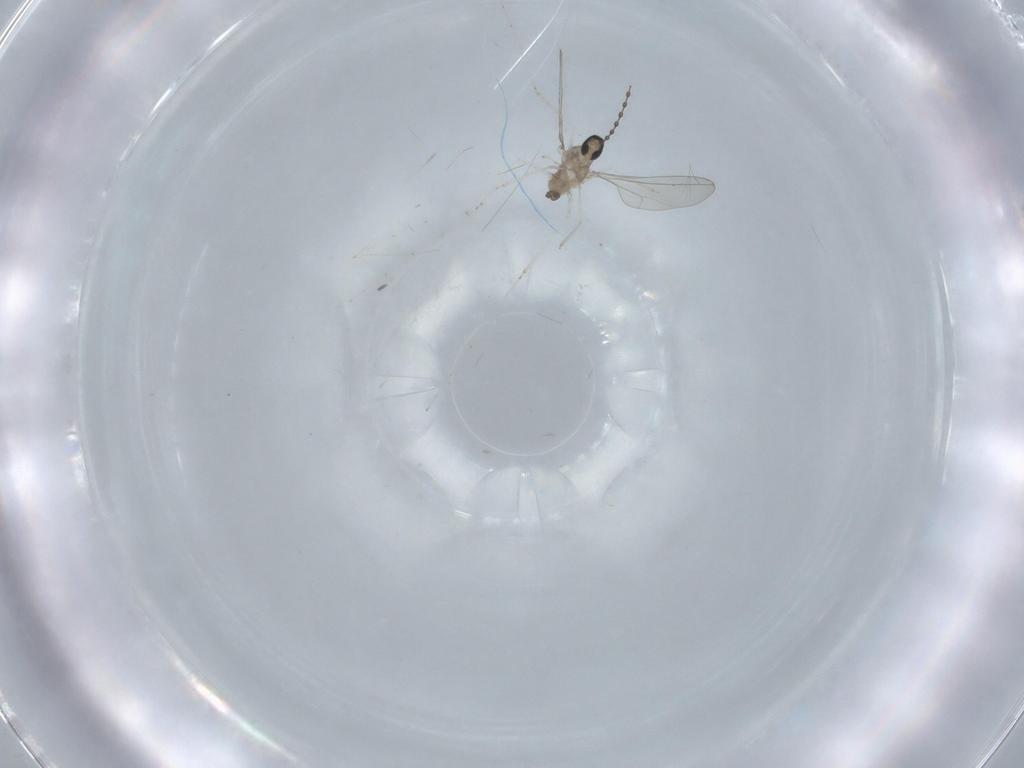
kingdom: Animalia
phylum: Arthropoda
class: Insecta
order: Diptera
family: Cecidomyiidae
